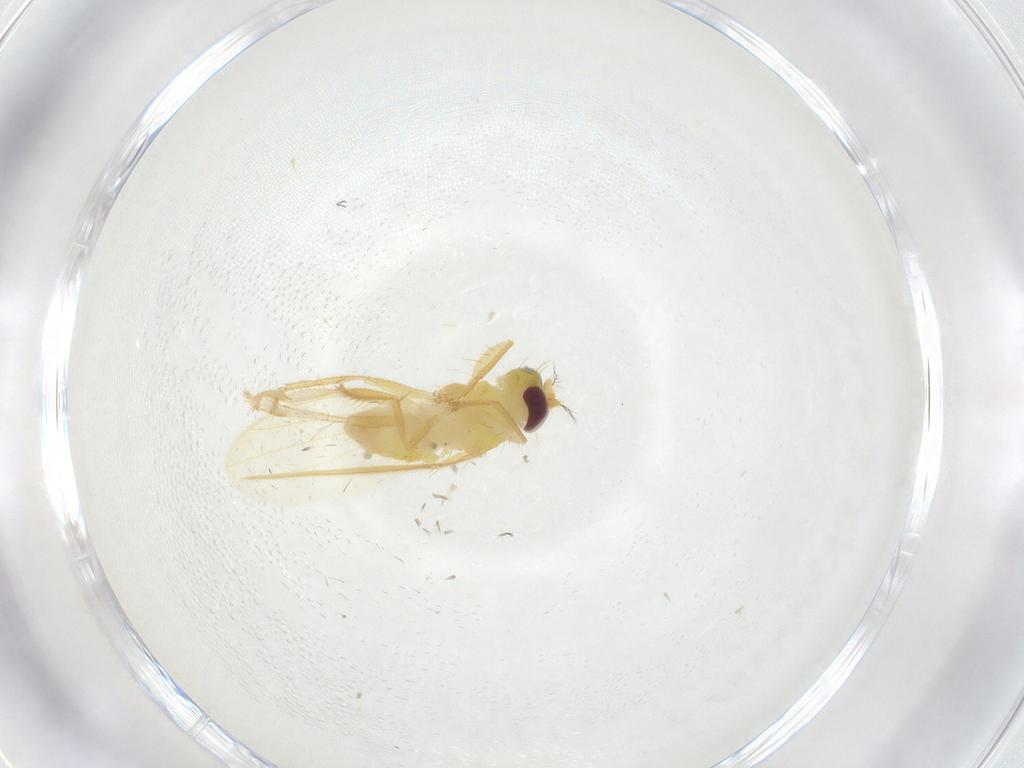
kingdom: Animalia
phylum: Arthropoda
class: Insecta
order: Diptera
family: Periscelididae
